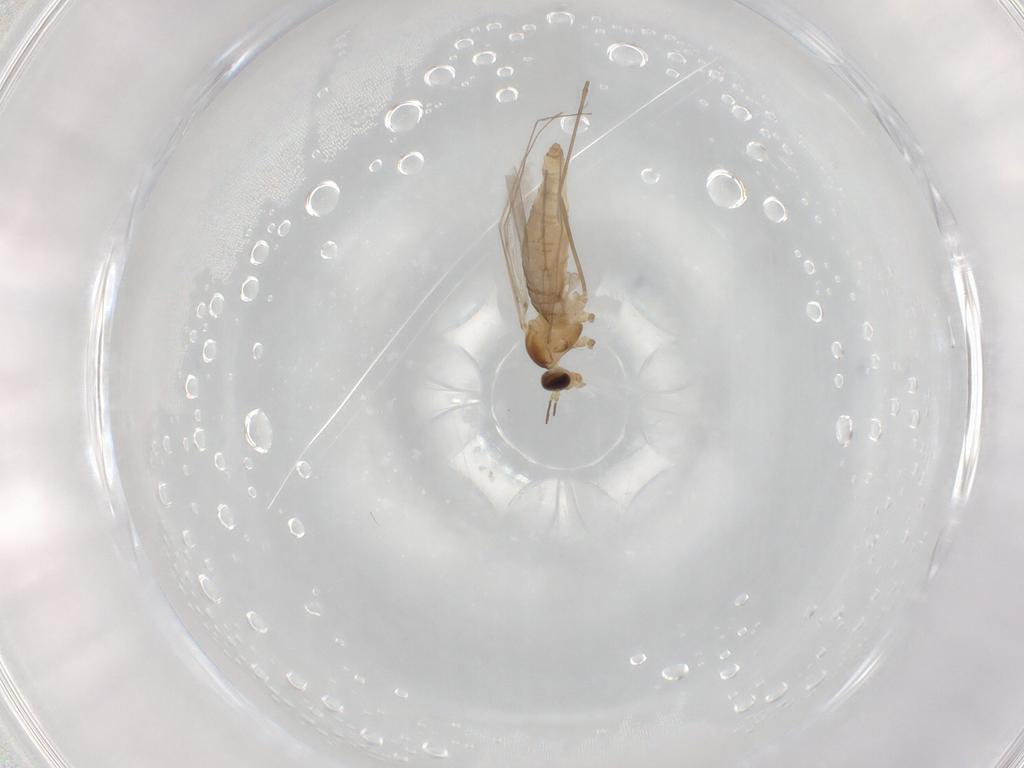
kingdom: Animalia
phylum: Arthropoda
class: Insecta
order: Diptera
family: Cecidomyiidae
